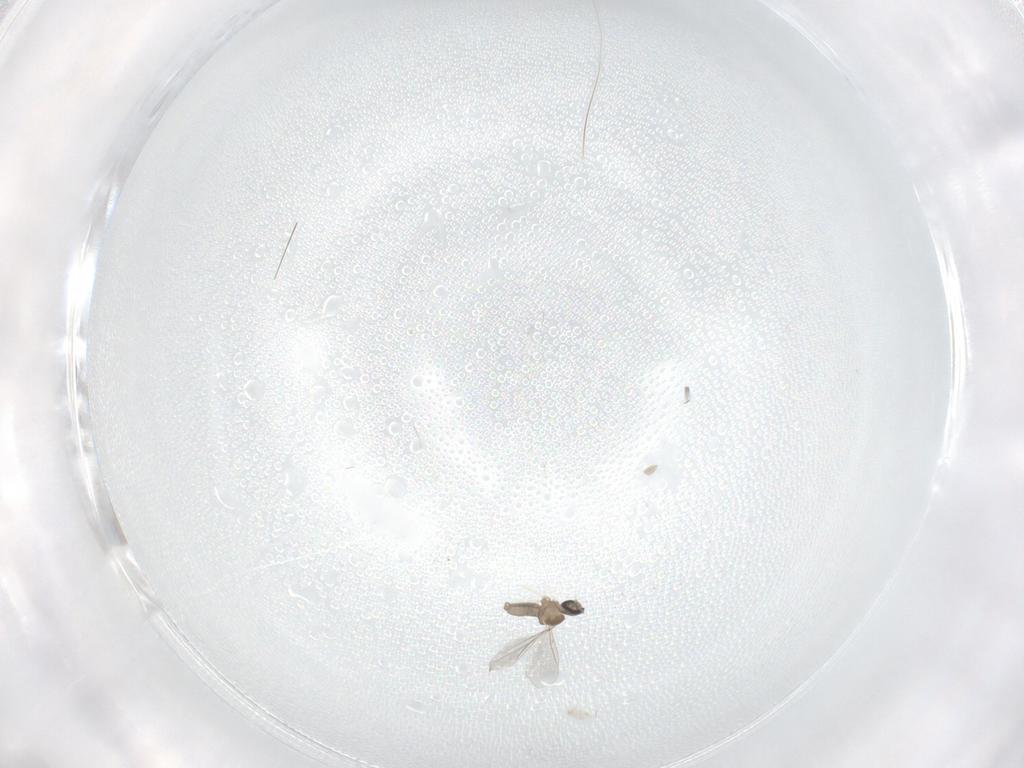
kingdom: Animalia
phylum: Arthropoda
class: Insecta
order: Diptera
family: Cecidomyiidae
